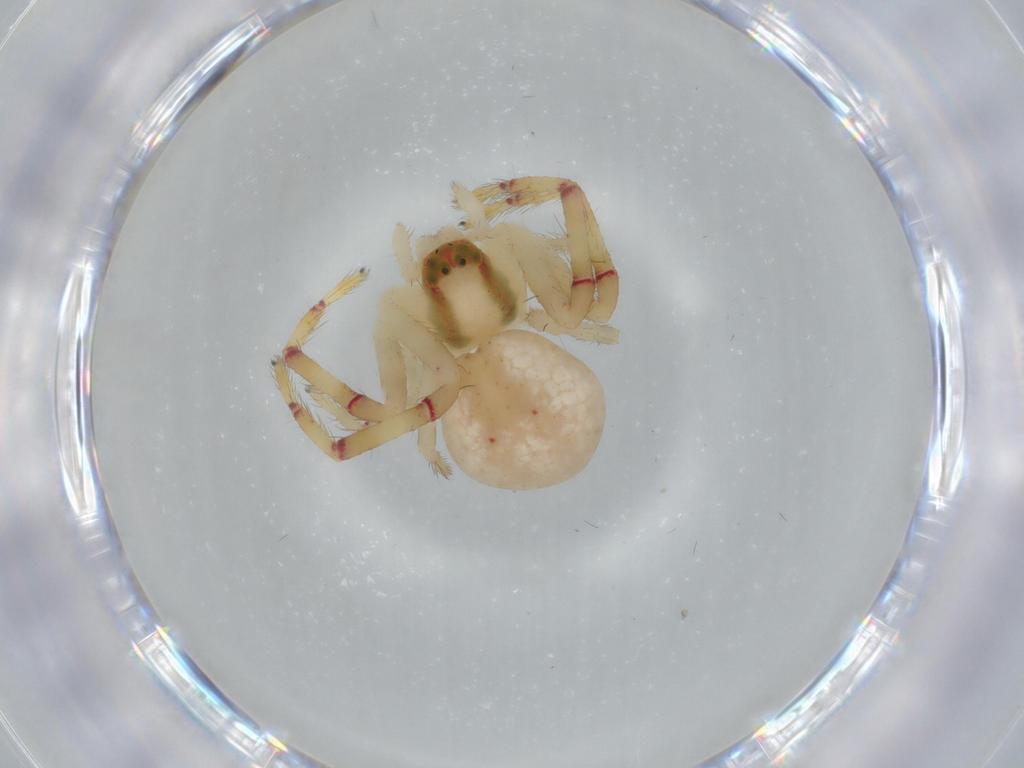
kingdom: Animalia
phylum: Arthropoda
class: Arachnida
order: Araneae
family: Thomisidae
